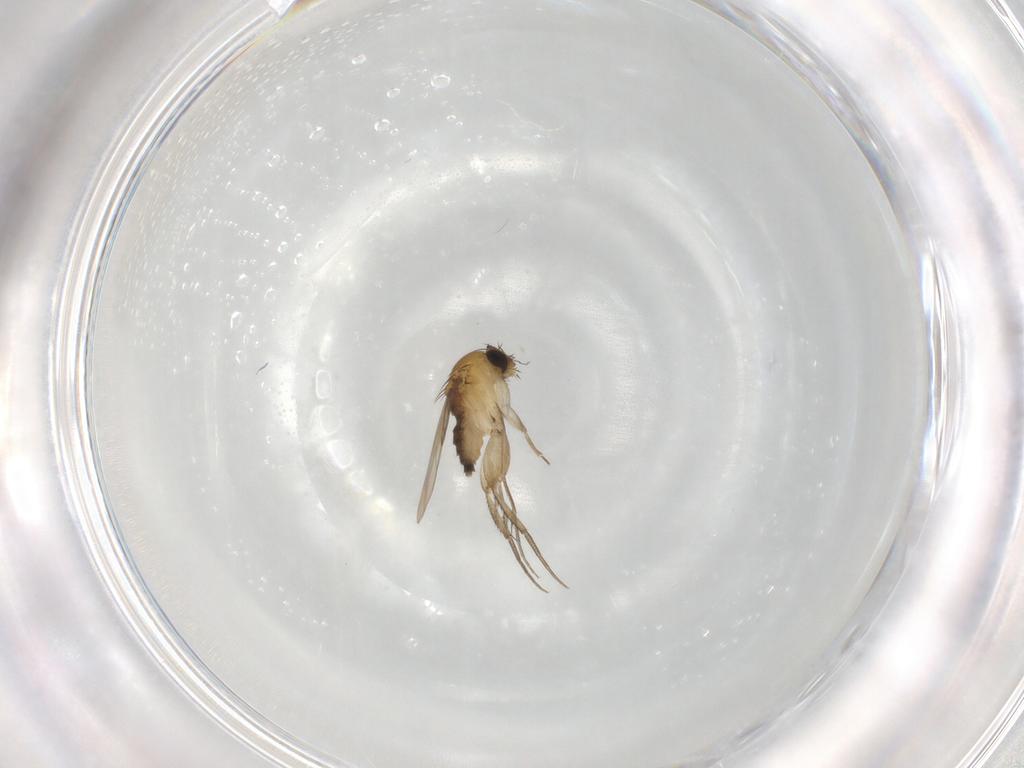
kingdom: Animalia
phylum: Arthropoda
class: Insecta
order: Diptera
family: Phoridae
